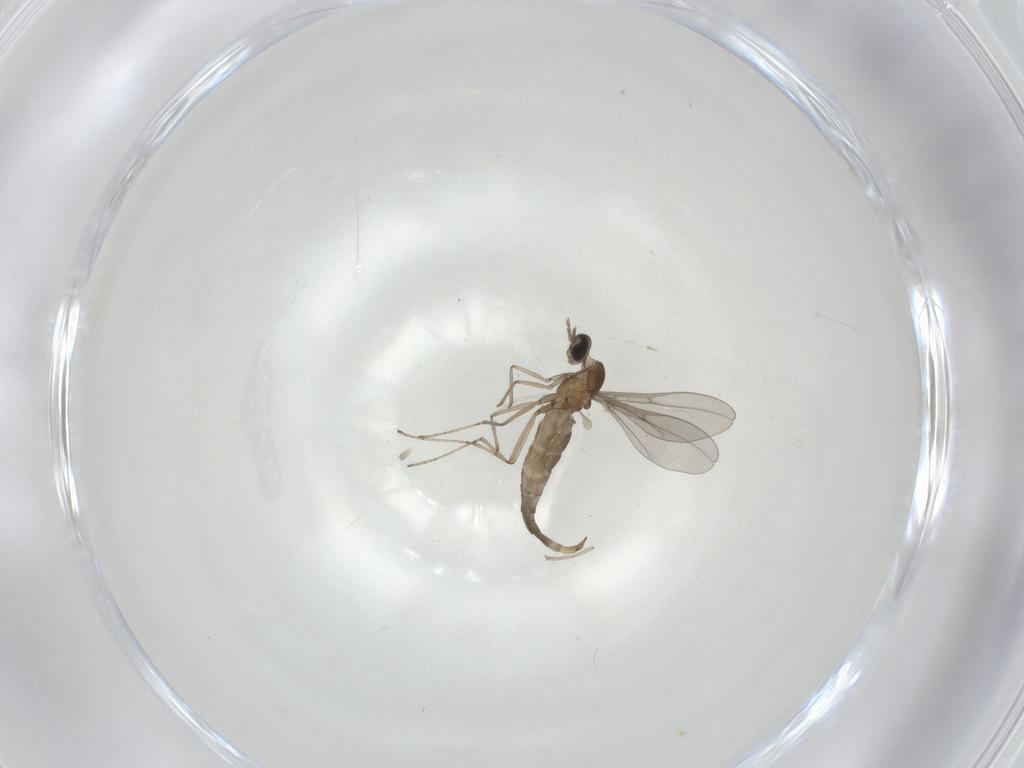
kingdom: Animalia
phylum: Arthropoda
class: Insecta
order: Diptera
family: Cecidomyiidae
